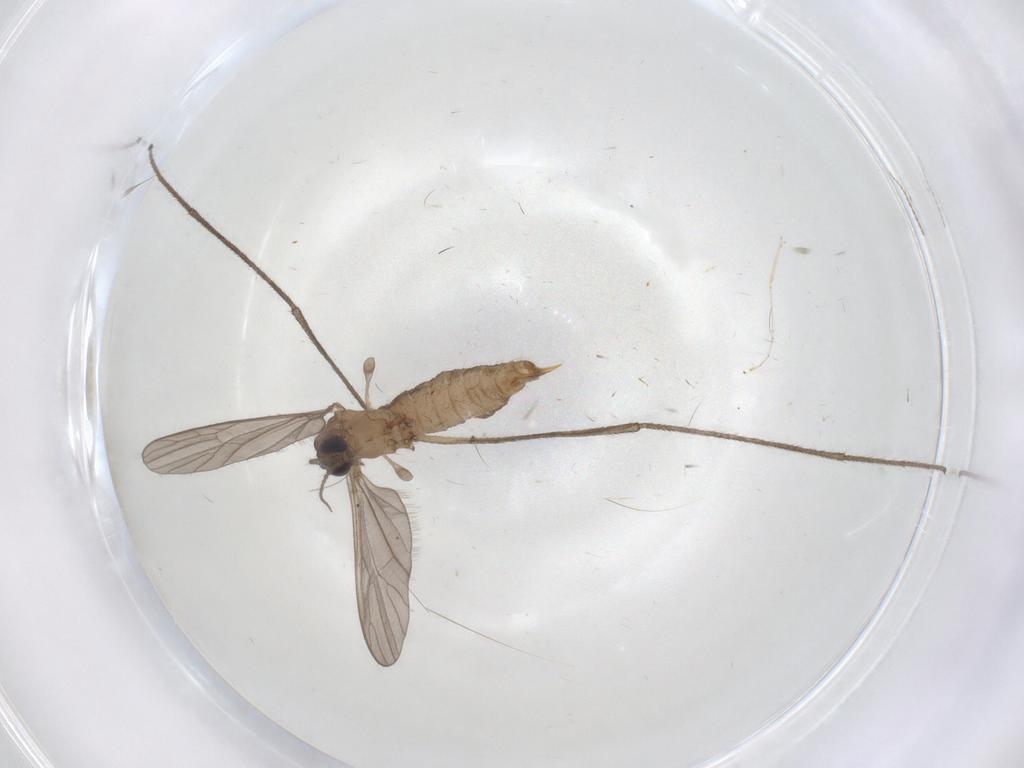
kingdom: Animalia
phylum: Arthropoda
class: Insecta
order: Diptera
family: Limoniidae
